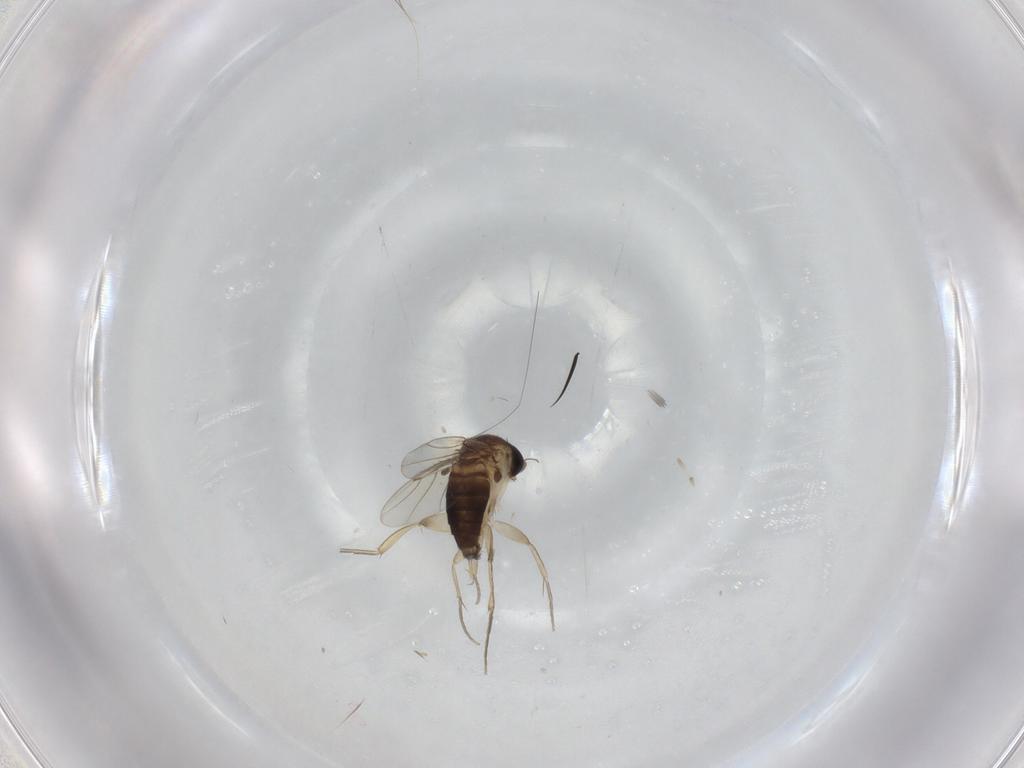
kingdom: Animalia
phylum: Arthropoda
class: Insecta
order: Diptera
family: Phoridae
